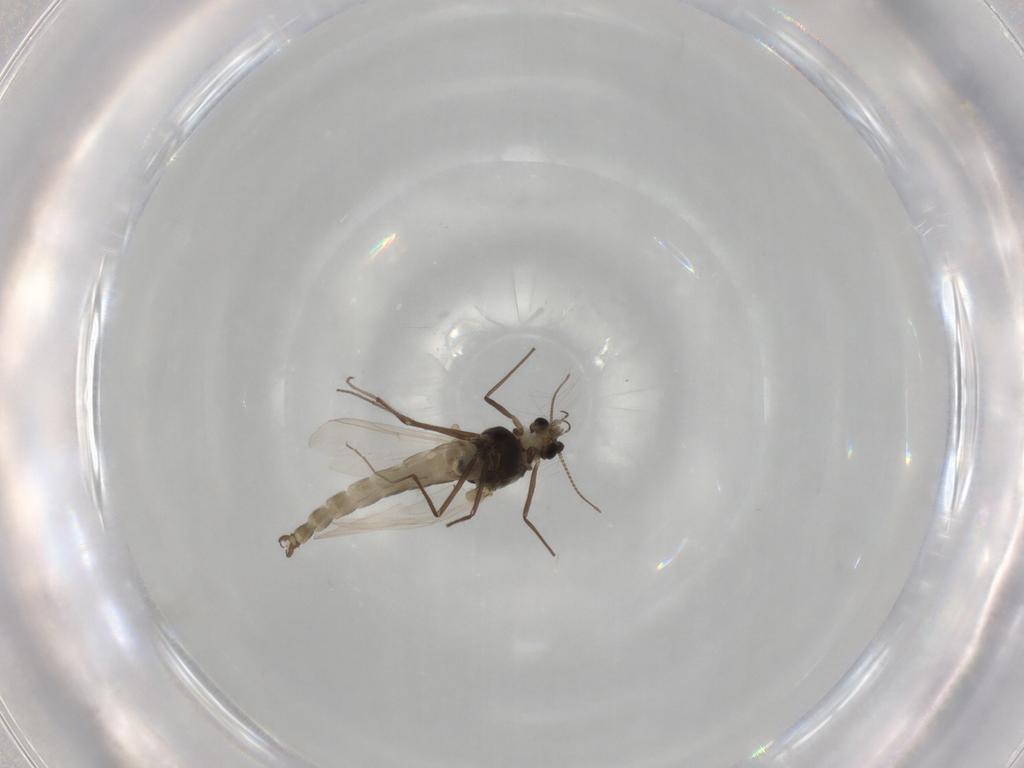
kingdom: Animalia
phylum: Arthropoda
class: Insecta
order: Diptera
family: Chironomidae
